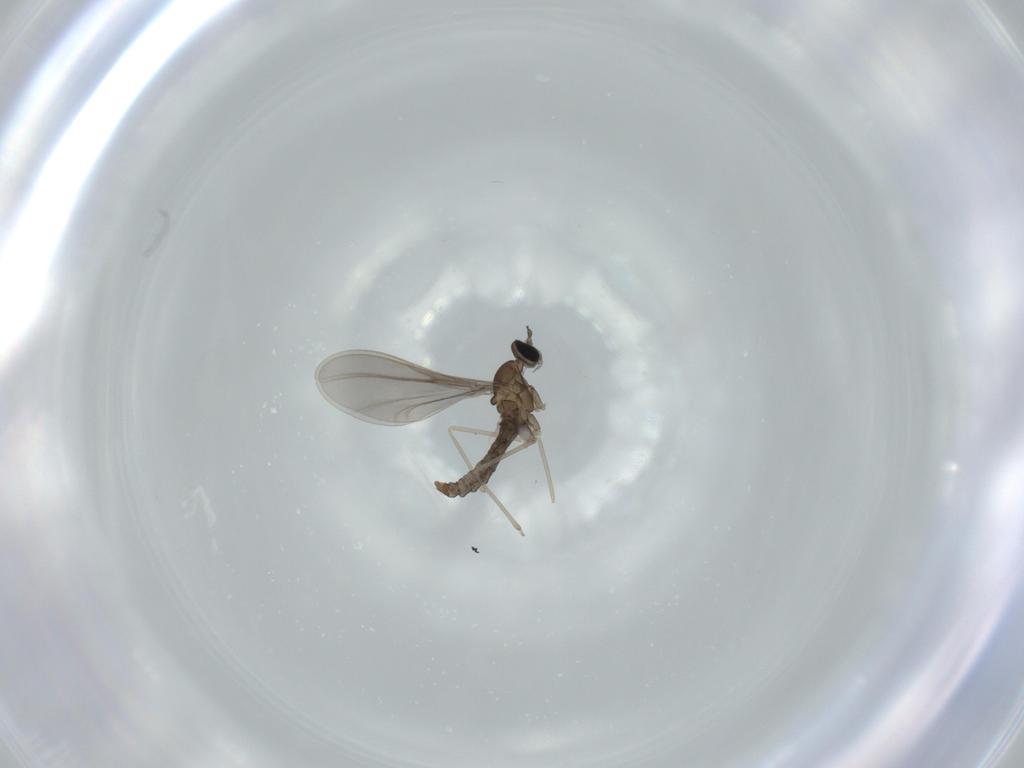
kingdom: Animalia
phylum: Arthropoda
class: Insecta
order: Diptera
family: Cecidomyiidae
